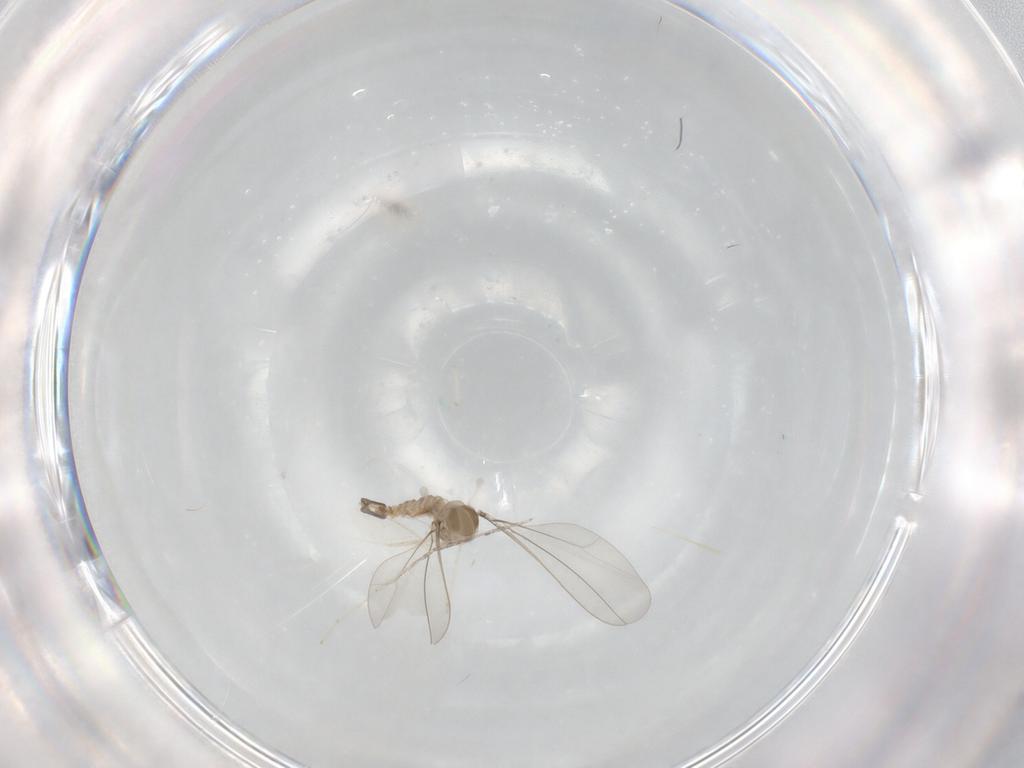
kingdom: Animalia
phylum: Arthropoda
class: Insecta
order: Diptera
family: Cecidomyiidae
